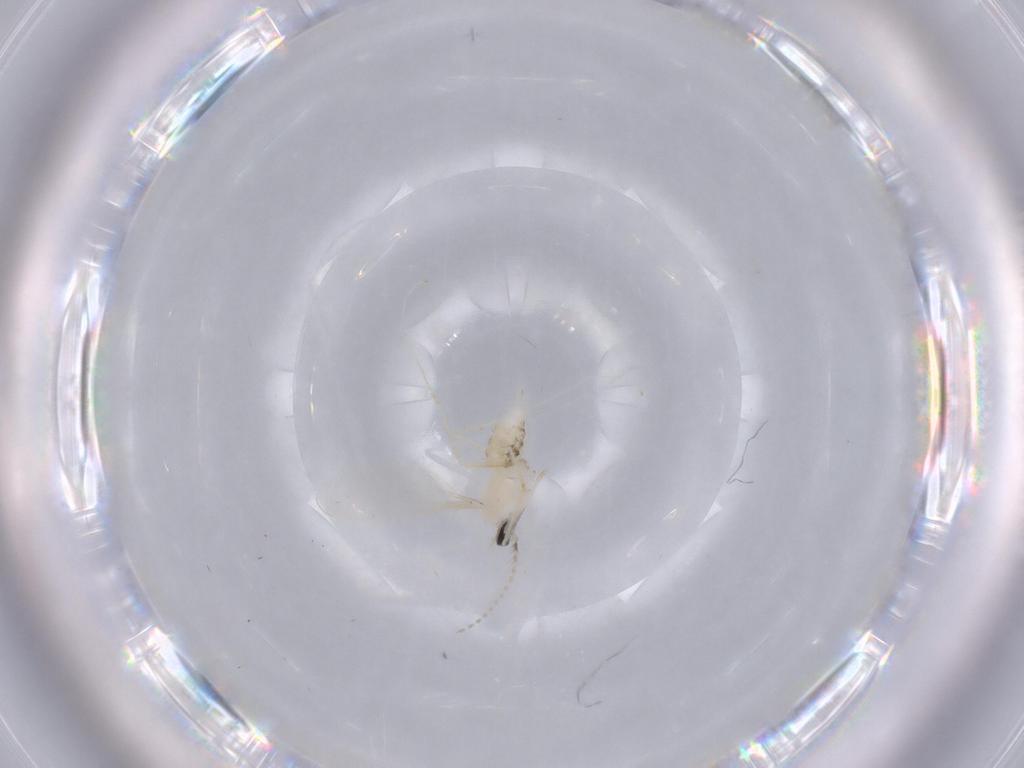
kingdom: Animalia
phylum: Arthropoda
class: Insecta
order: Diptera
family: Cecidomyiidae
